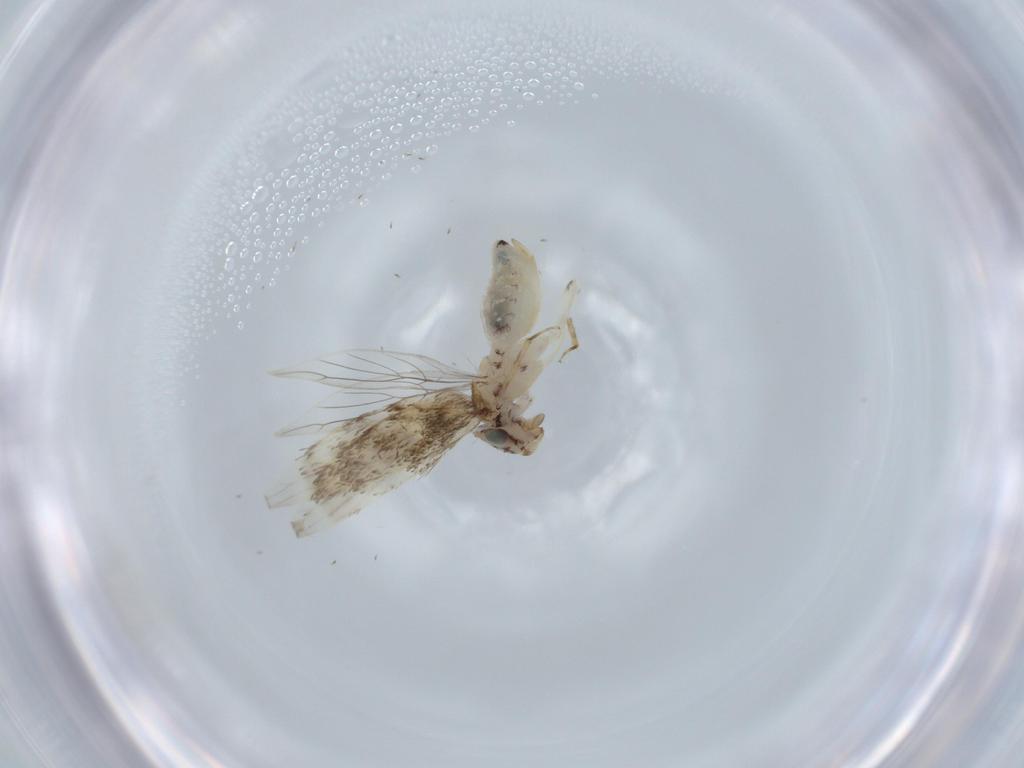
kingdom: Animalia
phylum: Arthropoda
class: Insecta
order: Psocodea
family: Lepidopsocidae
